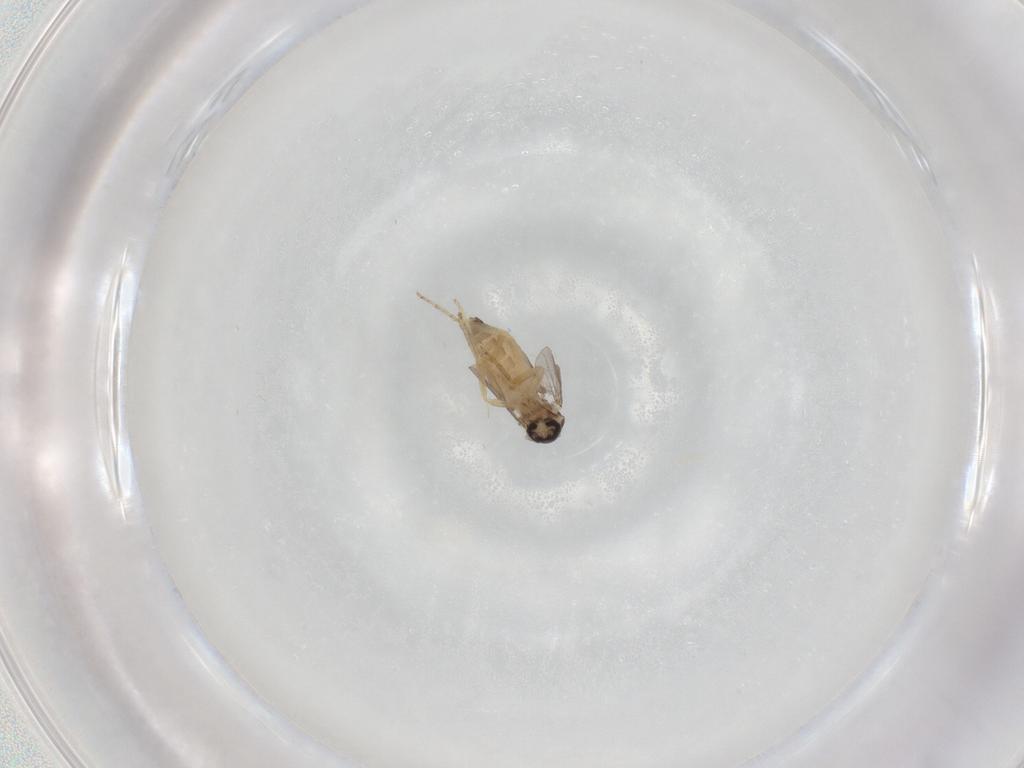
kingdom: Animalia
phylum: Arthropoda
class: Insecta
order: Diptera
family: Ceratopogonidae
